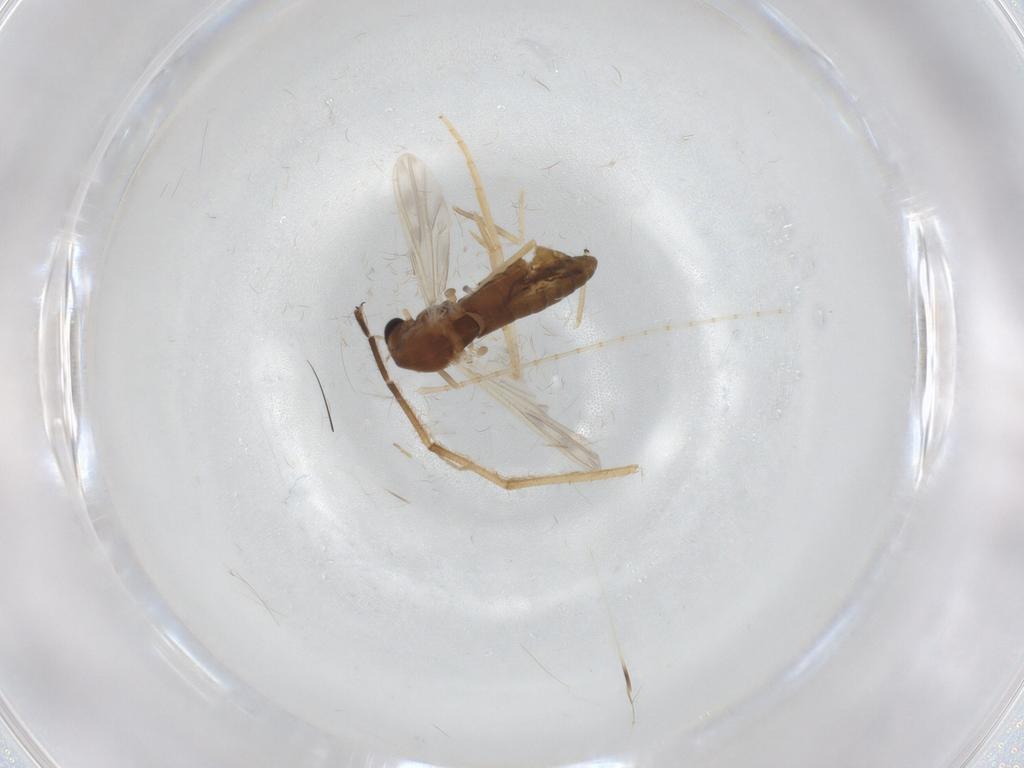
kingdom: Animalia
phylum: Arthropoda
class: Insecta
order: Diptera
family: Chironomidae
